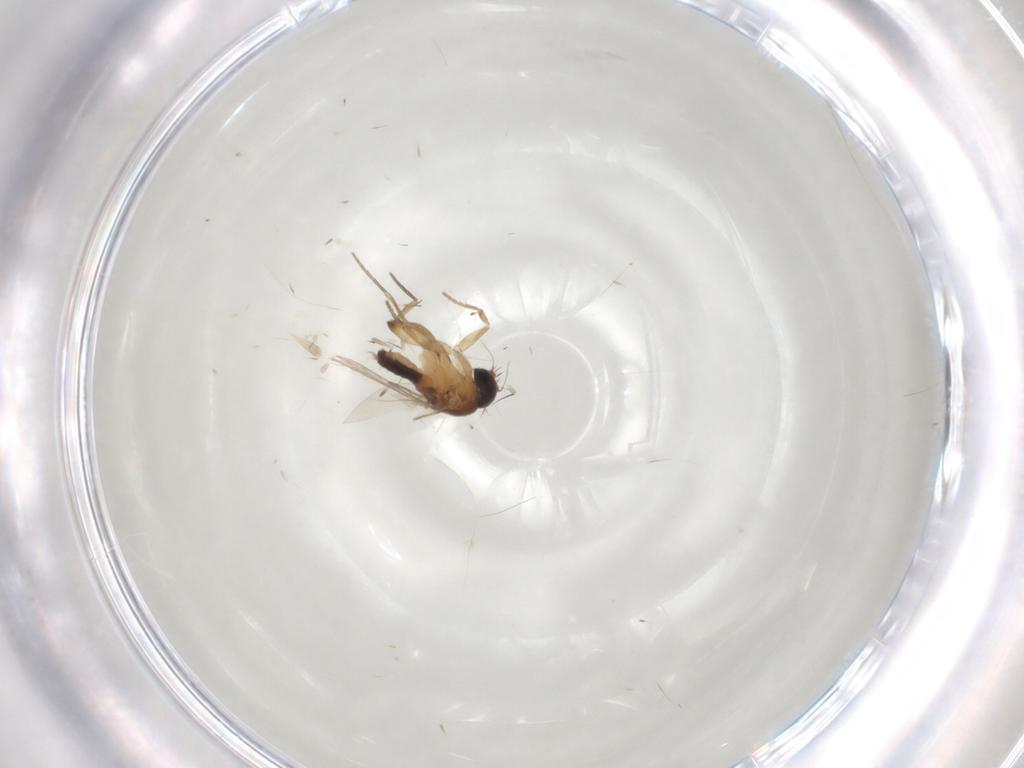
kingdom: Animalia
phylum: Arthropoda
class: Insecta
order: Diptera
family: Phoridae
